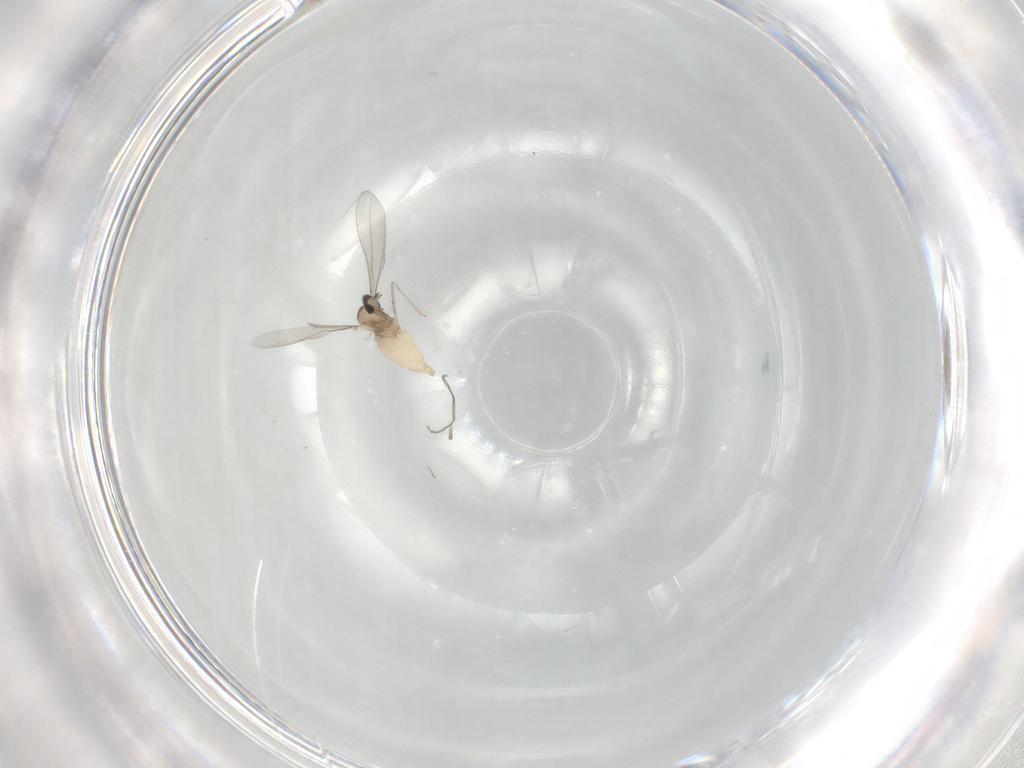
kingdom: Animalia
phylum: Arthropoda
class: Insecta
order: Diptera
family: Cecidomyiidae
